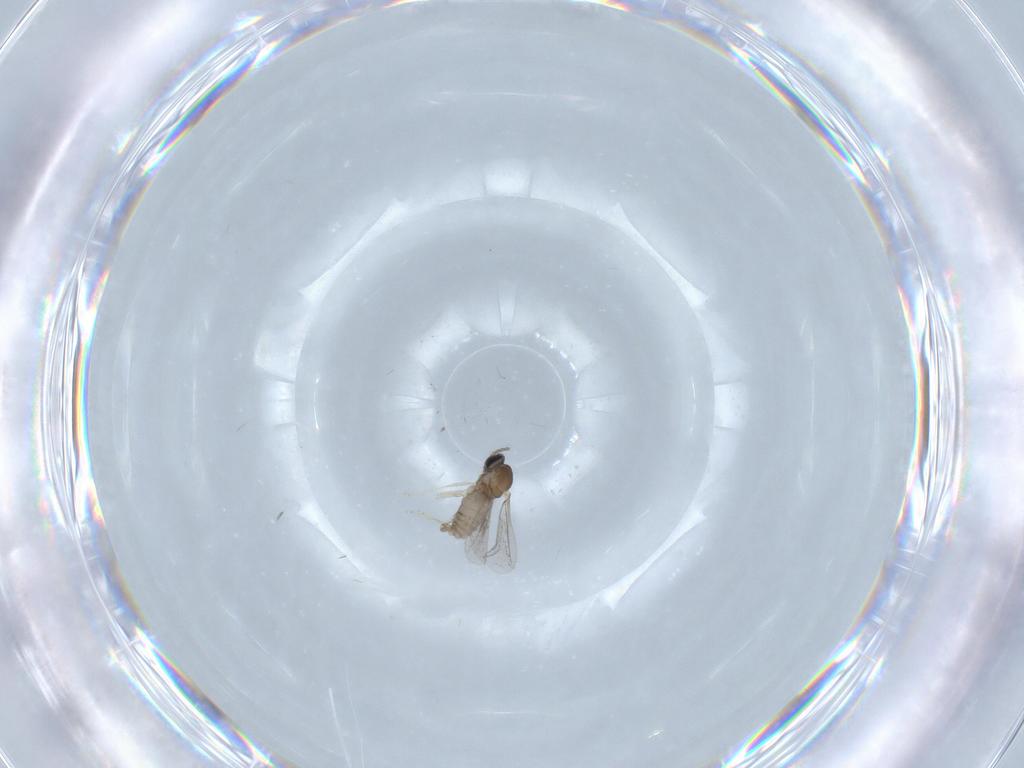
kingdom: Animalia
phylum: Arthropoda
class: Insecta
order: Diptera
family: Cecidomyiidae
